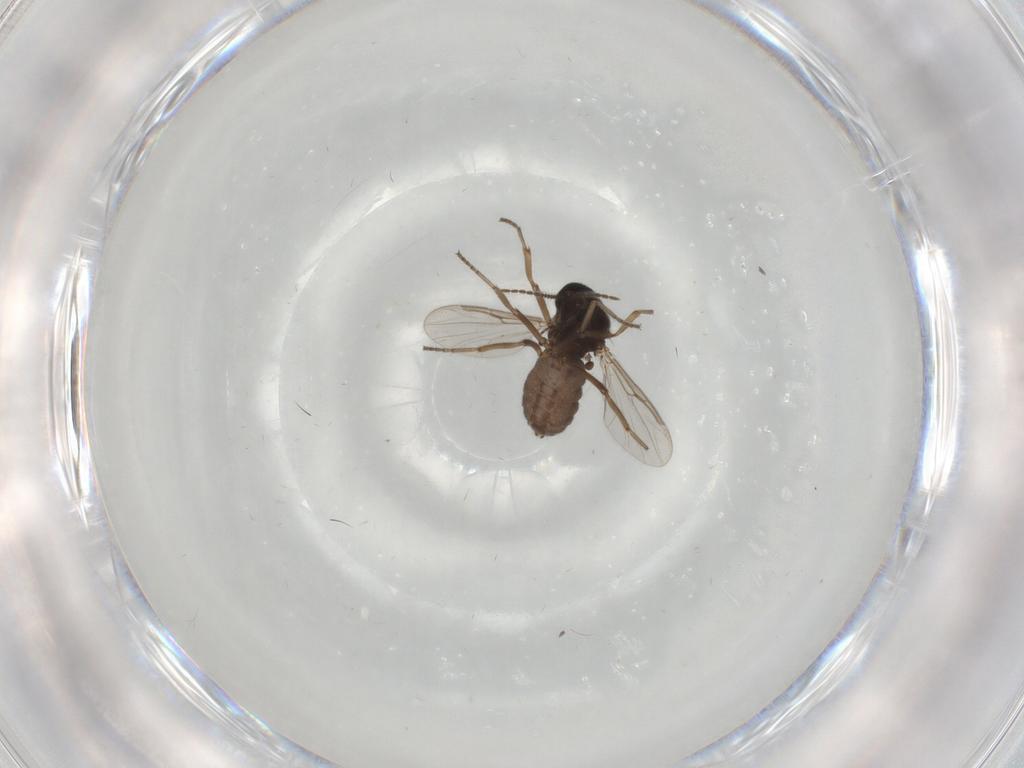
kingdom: Animalia
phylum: Arthropoda
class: Insecta
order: Diptera
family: Ceratopogonidae
